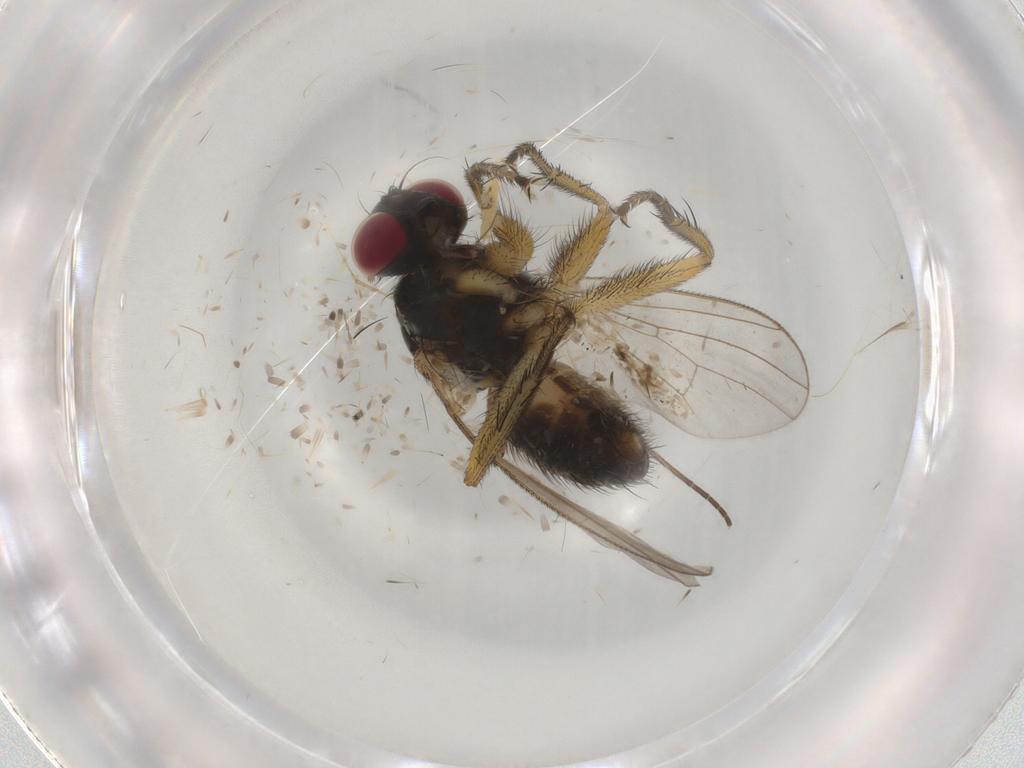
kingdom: Animalia
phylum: Arthropoda
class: Insecta
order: Diptera
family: Muscidae
